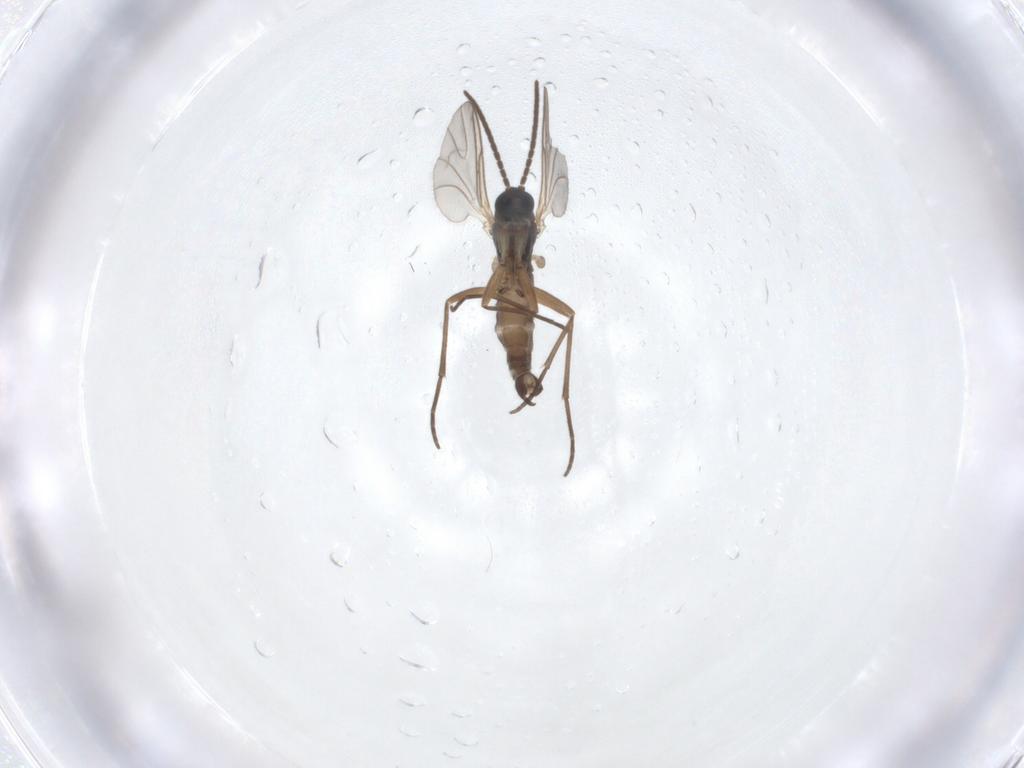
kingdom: Animalia
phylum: Arthropoda
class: Insecta
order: Diptera
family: Sciaridae
